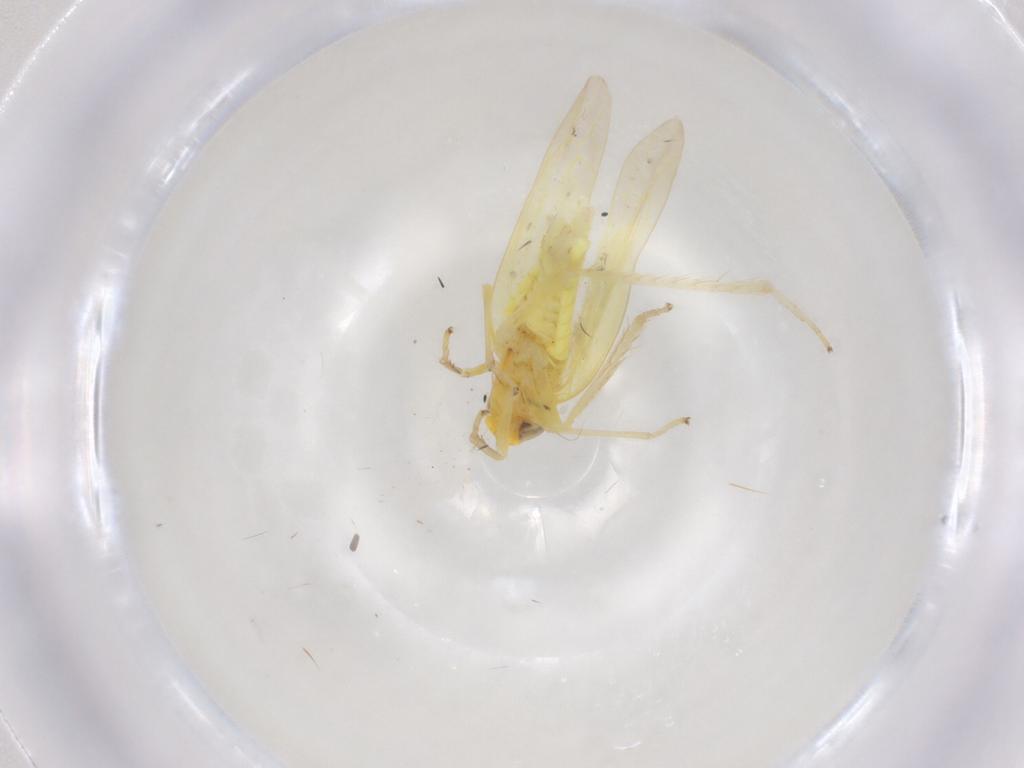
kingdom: Animalia
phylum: Arthropoda
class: Insecta
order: Hemiptera
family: Cicadellidae
